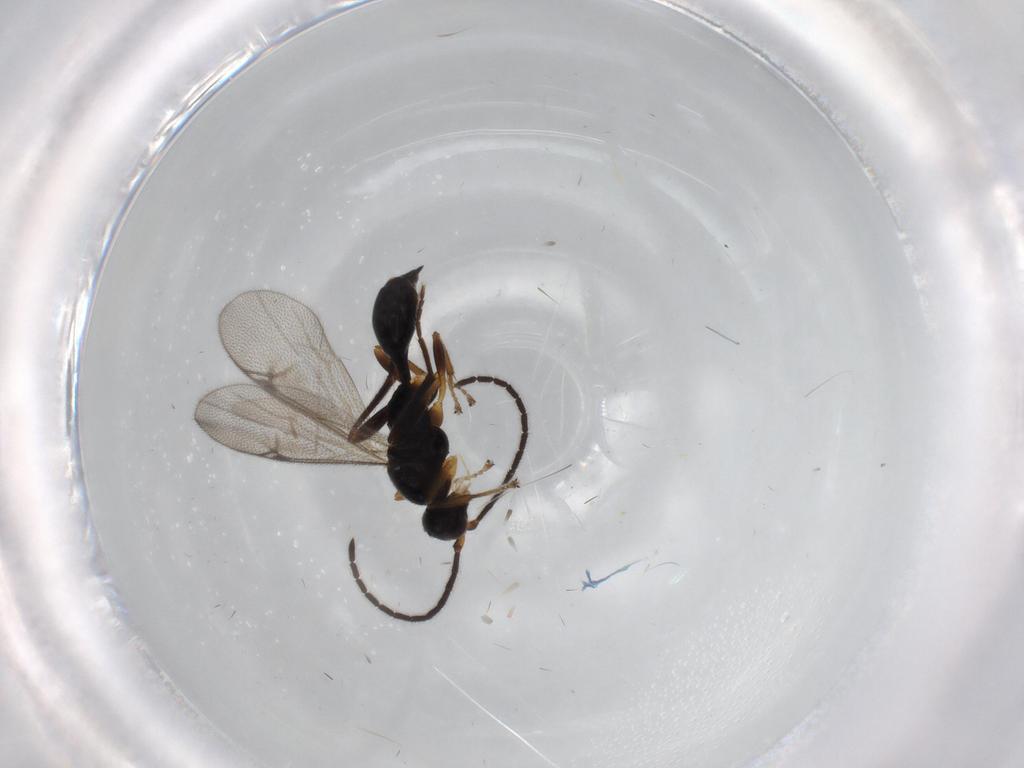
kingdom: Animalia
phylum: Arthropoda
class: Insecta
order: Hymenoptera
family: Proctotrupidae
